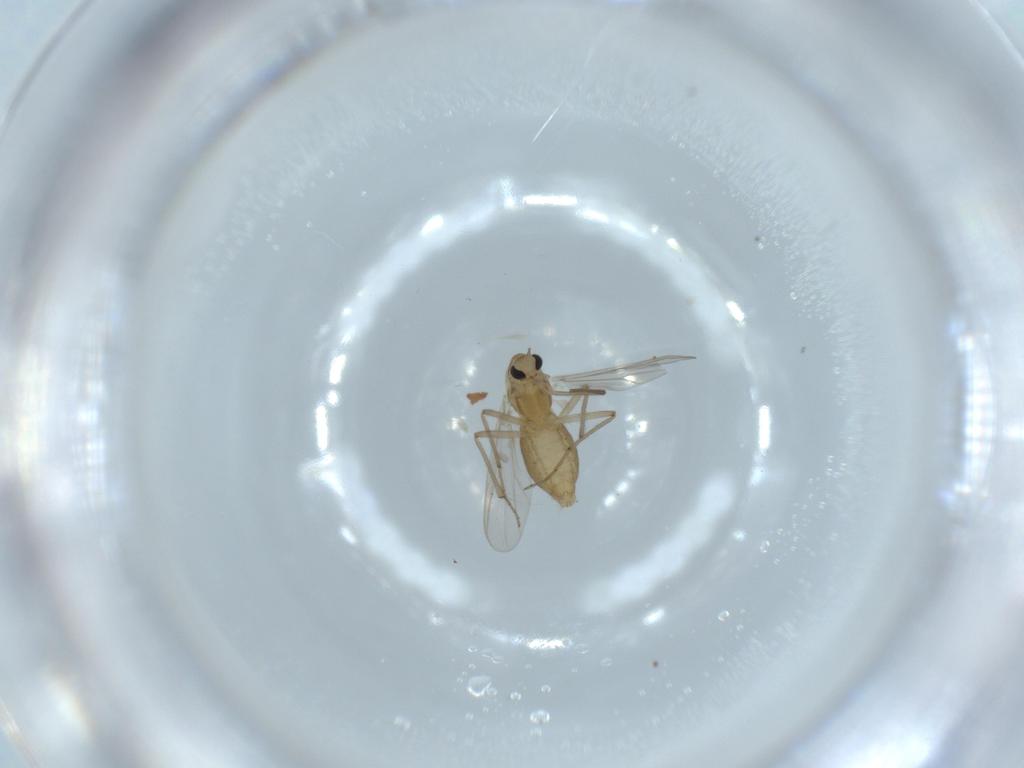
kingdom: Animalia
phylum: Arthropoda
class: Insecta
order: Diptera
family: Chironomidae
